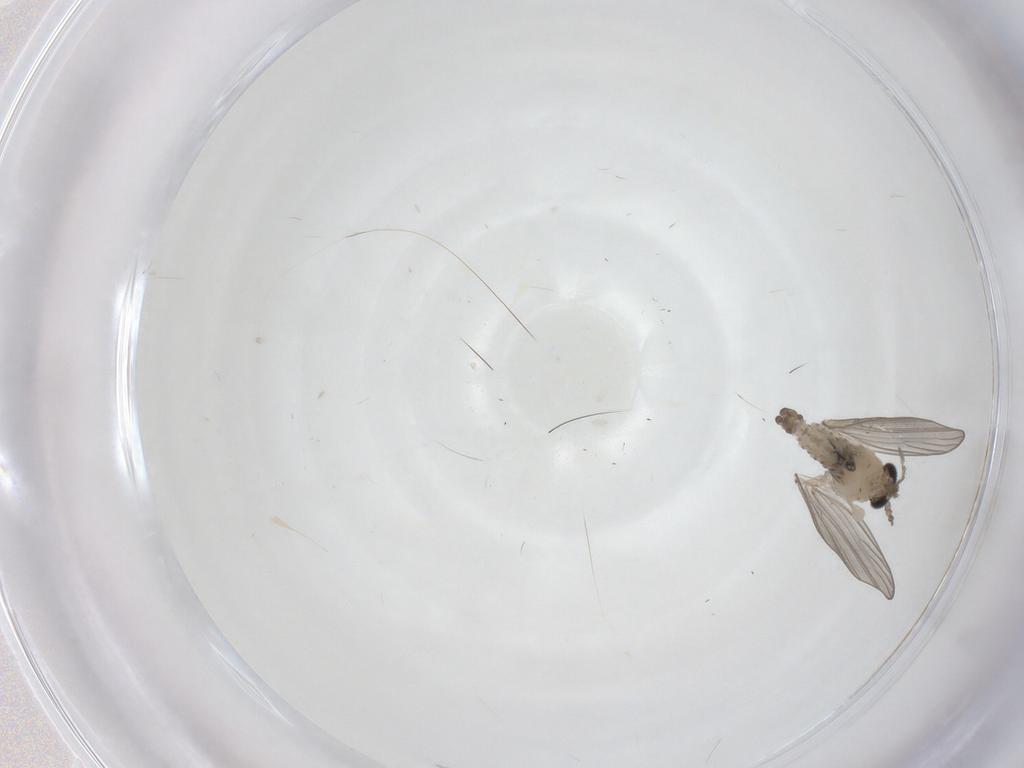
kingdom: Animalia
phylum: Arthropoda
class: Insecta
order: Diptera
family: Psychodidae
